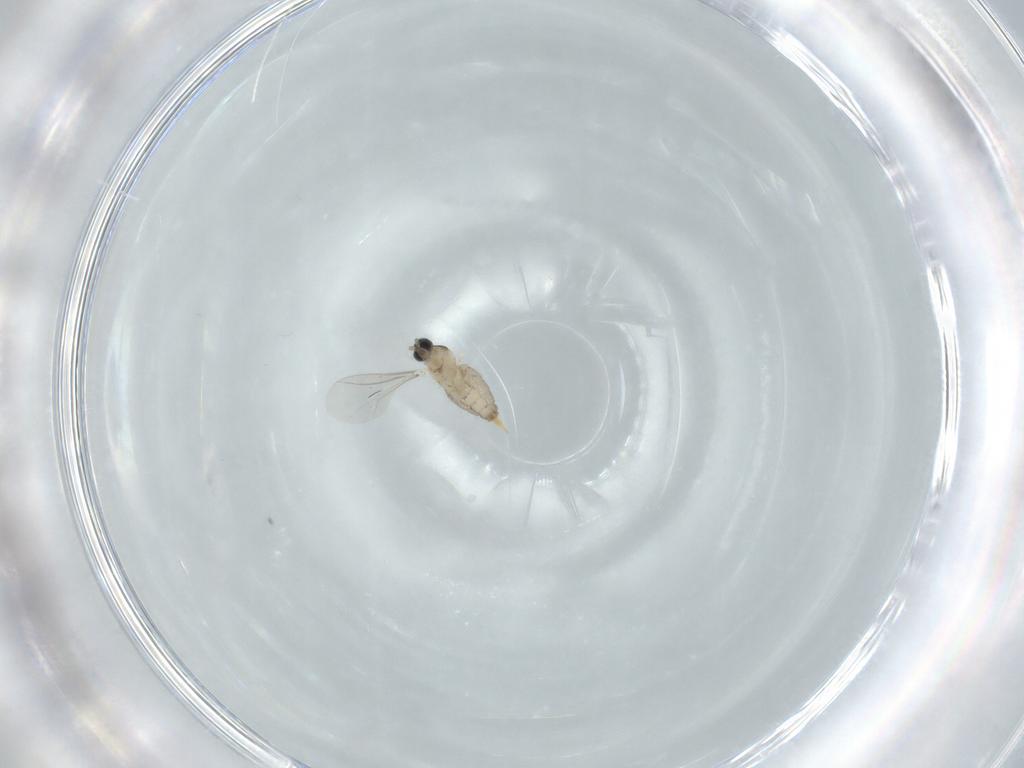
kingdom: Animalia
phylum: Arthropoda
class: Insecta
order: Diptera
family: Cecidomyiidae
